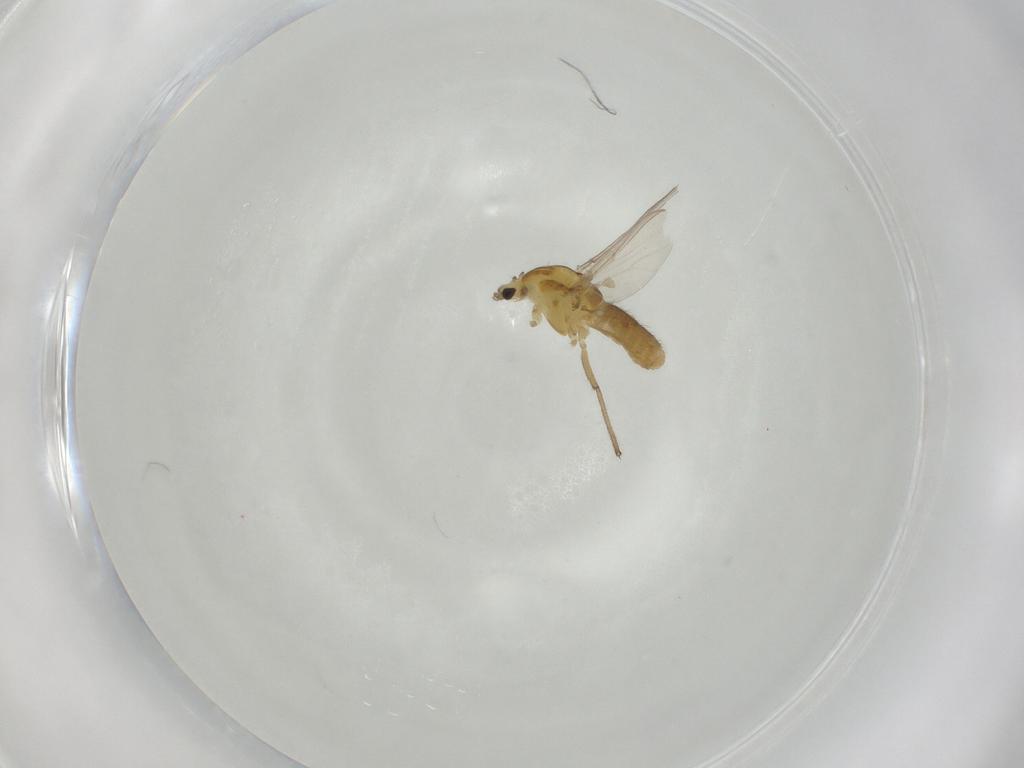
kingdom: Animalia
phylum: Arthropoda
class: Insecta
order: Diptera
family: Chironomidae
